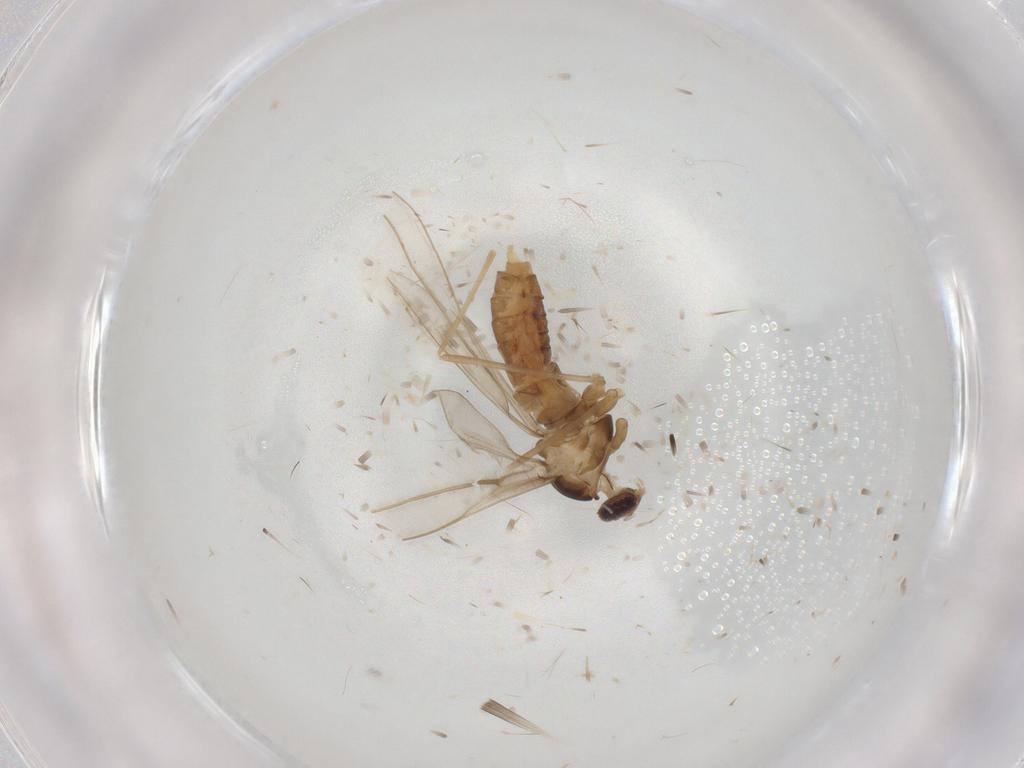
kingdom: Animalia
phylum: Arthropoda
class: Insecta
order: Diptera
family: Cecidomyiidae
